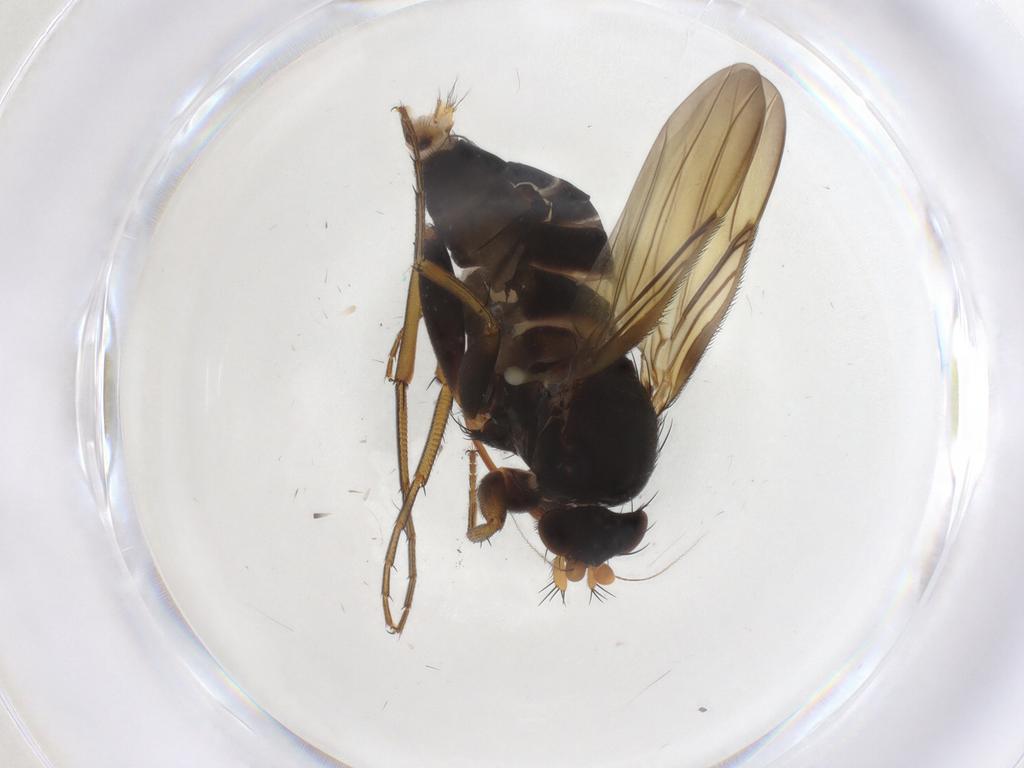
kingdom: Animalia
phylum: Arthropoda
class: Insecta
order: Diptera
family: Phoridae
